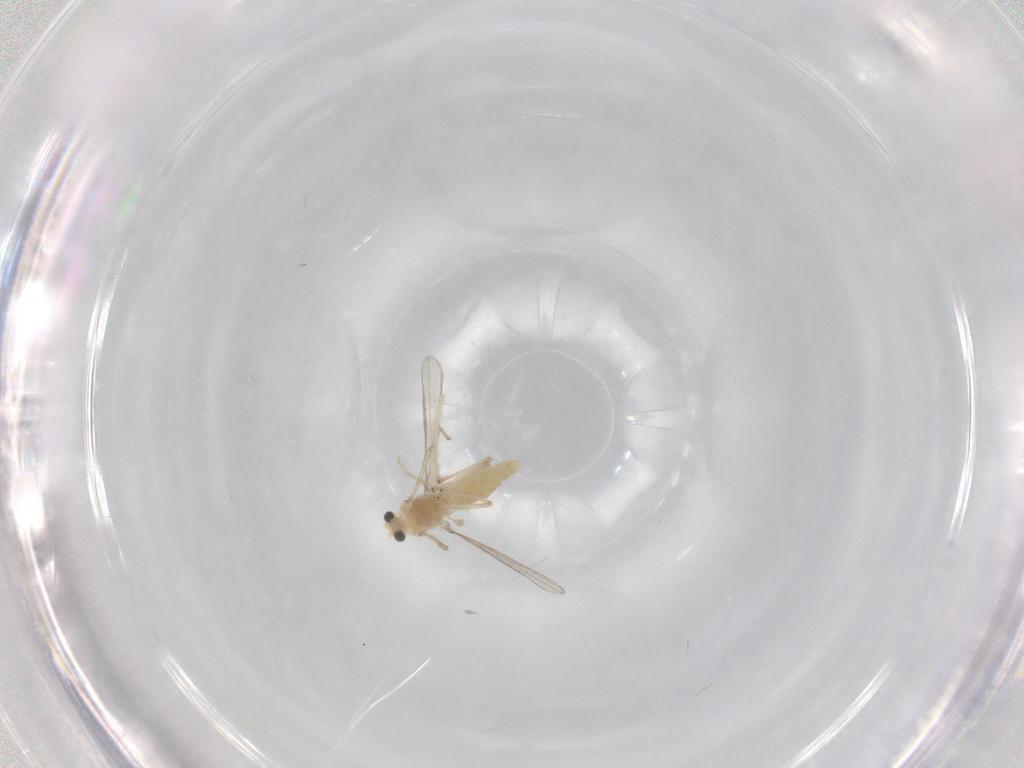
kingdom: Animalia
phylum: Arthropoda
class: Insecta
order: Diptera
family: Chironomidae
